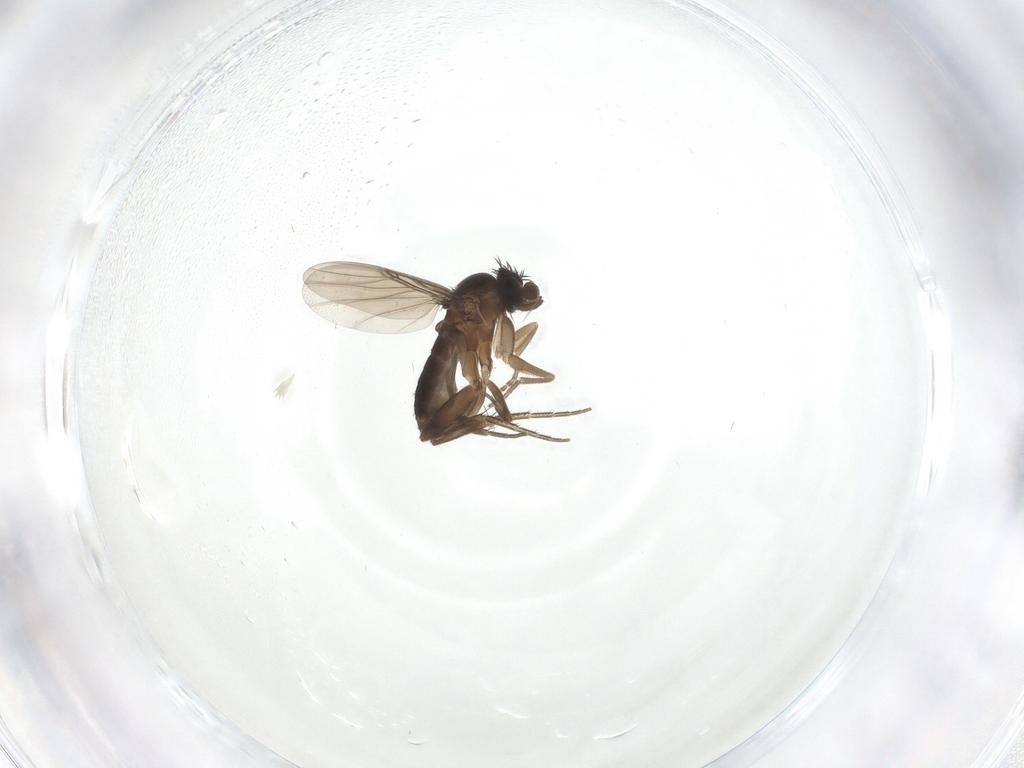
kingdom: Animalia
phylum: Arthropoda
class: Insecta
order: Diptera
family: Phoridae
